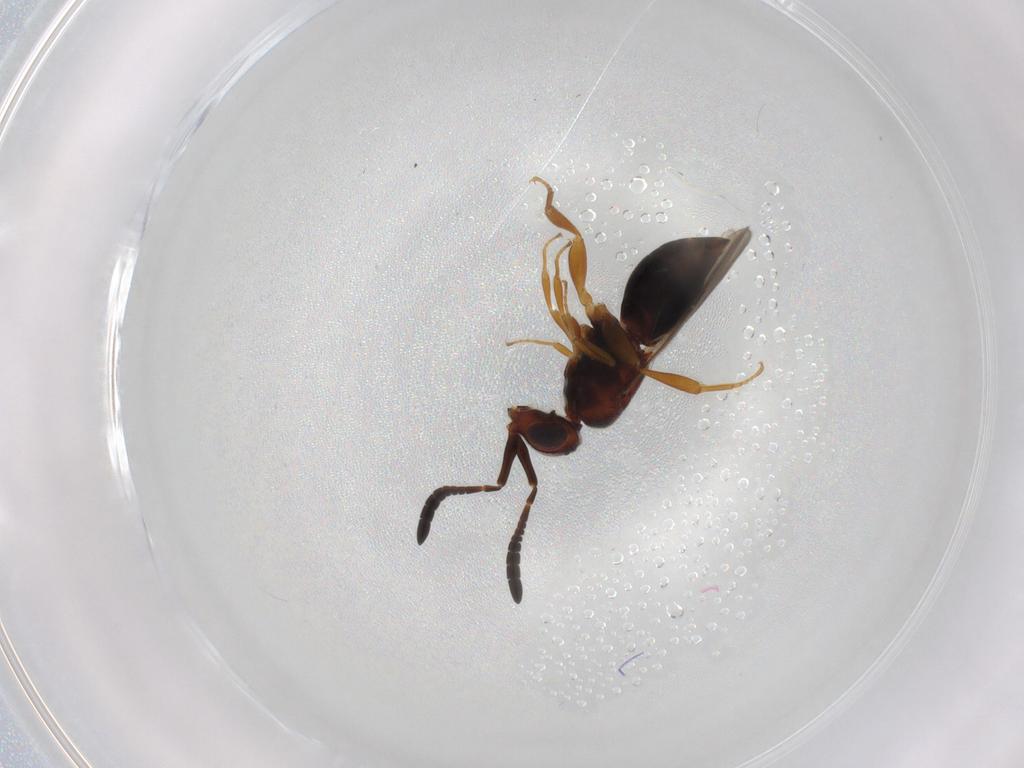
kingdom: Animalia
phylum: Arthropoda
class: Insecta
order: Hymenoptera
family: Ceraphronidae
